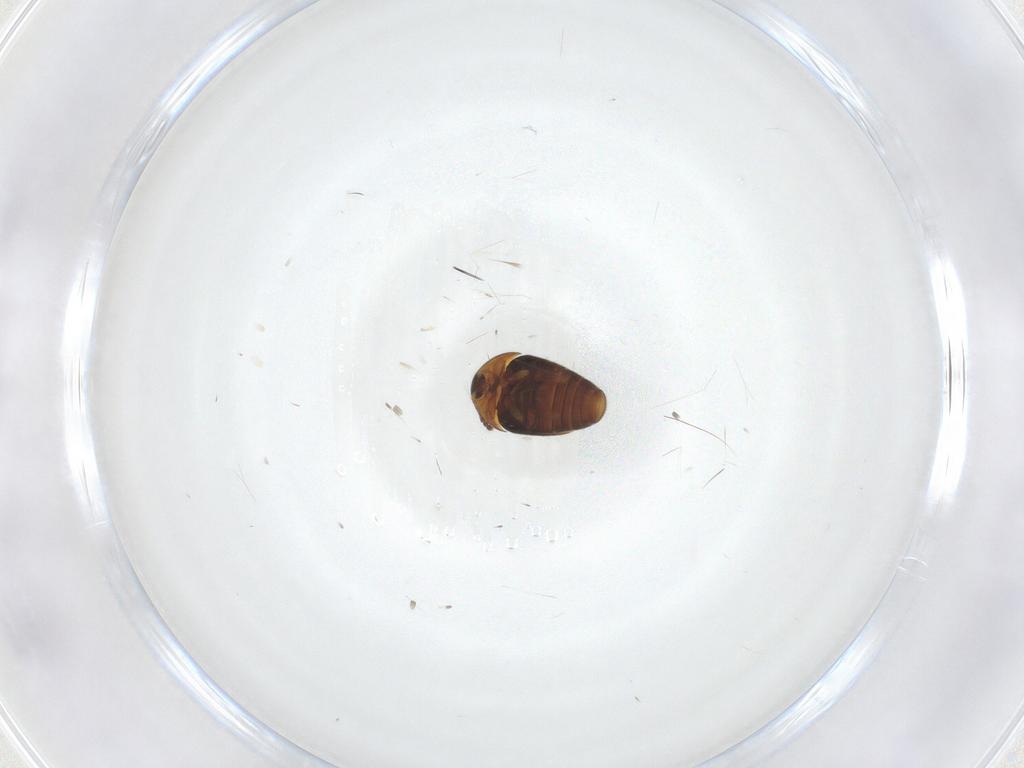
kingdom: Animalia
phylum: Arthropoda
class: Insecta
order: Coleoptera
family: Corylophidae
